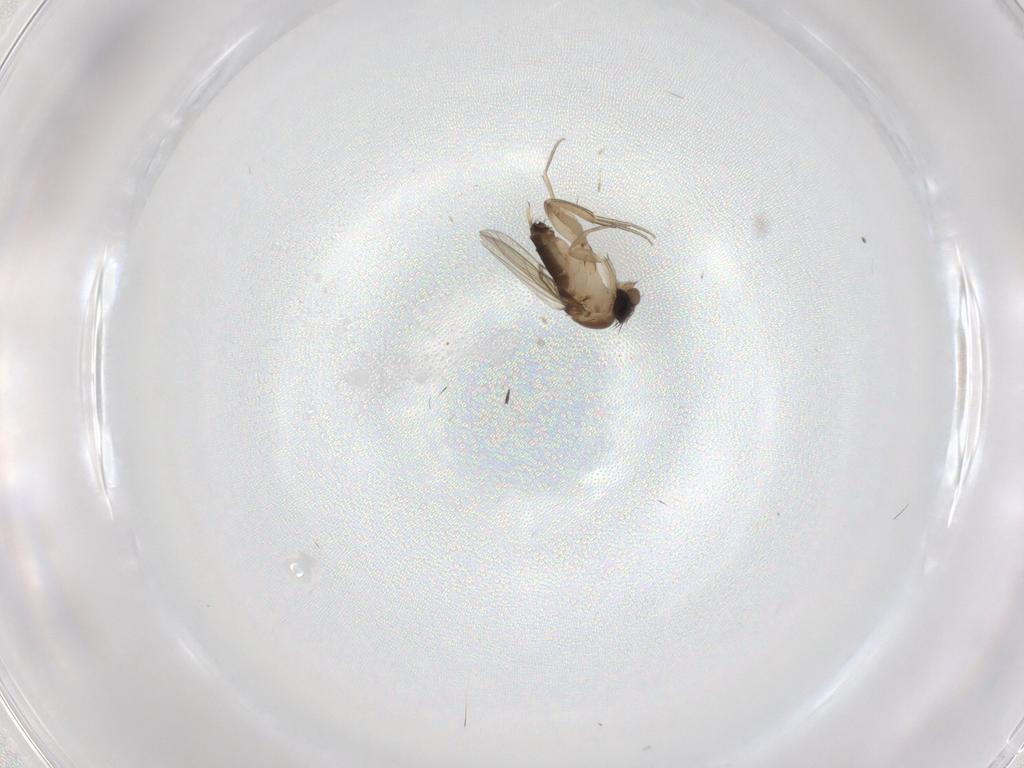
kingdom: Animalia
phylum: Arthropoda
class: Insecta
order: Diptera
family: Phoridae
